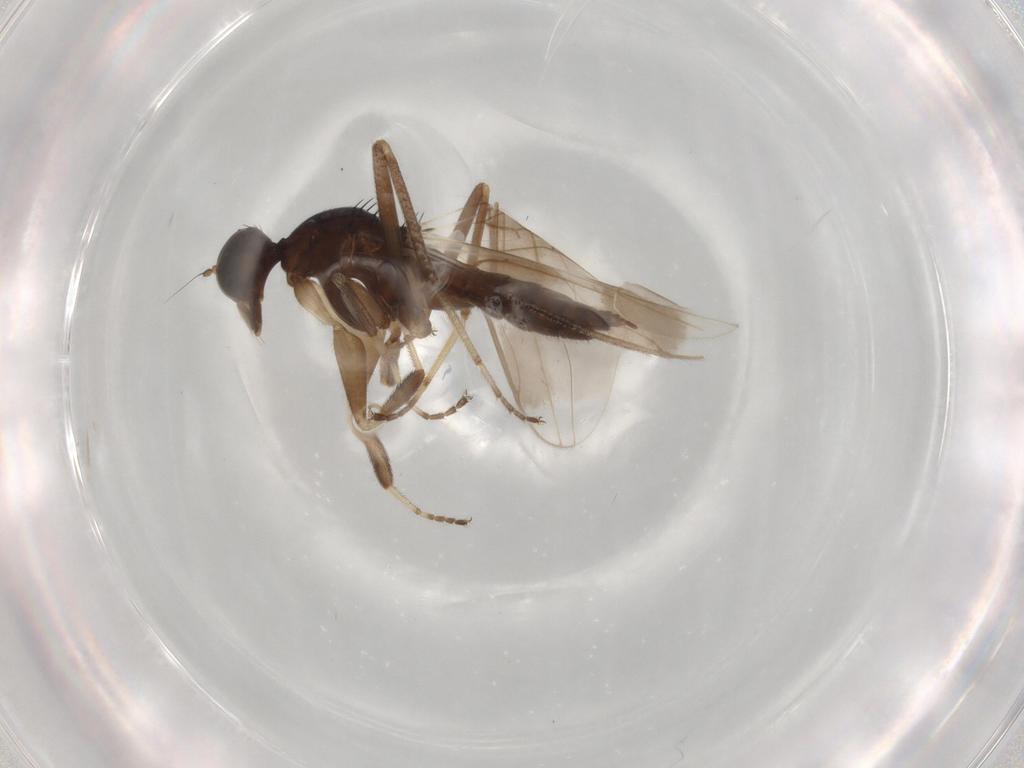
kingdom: Animalia
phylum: Arthropoda
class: Insecta
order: Diptera
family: Hybotidae
